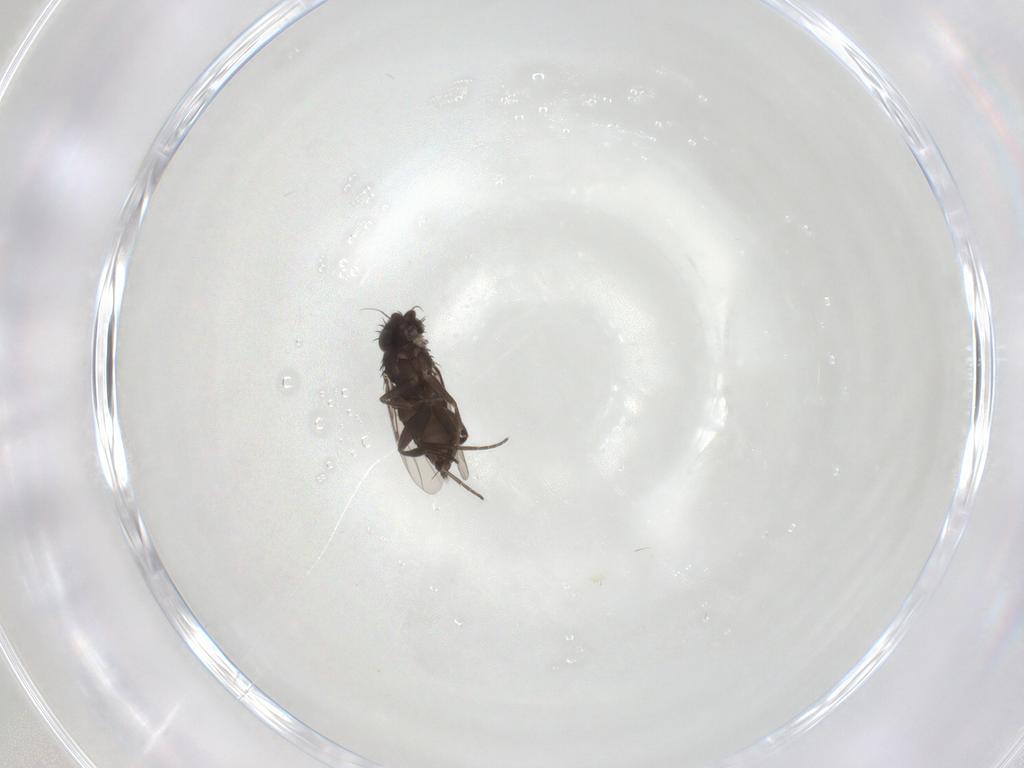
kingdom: Animalia
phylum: Arthropoda
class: Insecta
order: Diptera
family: Phoridae
